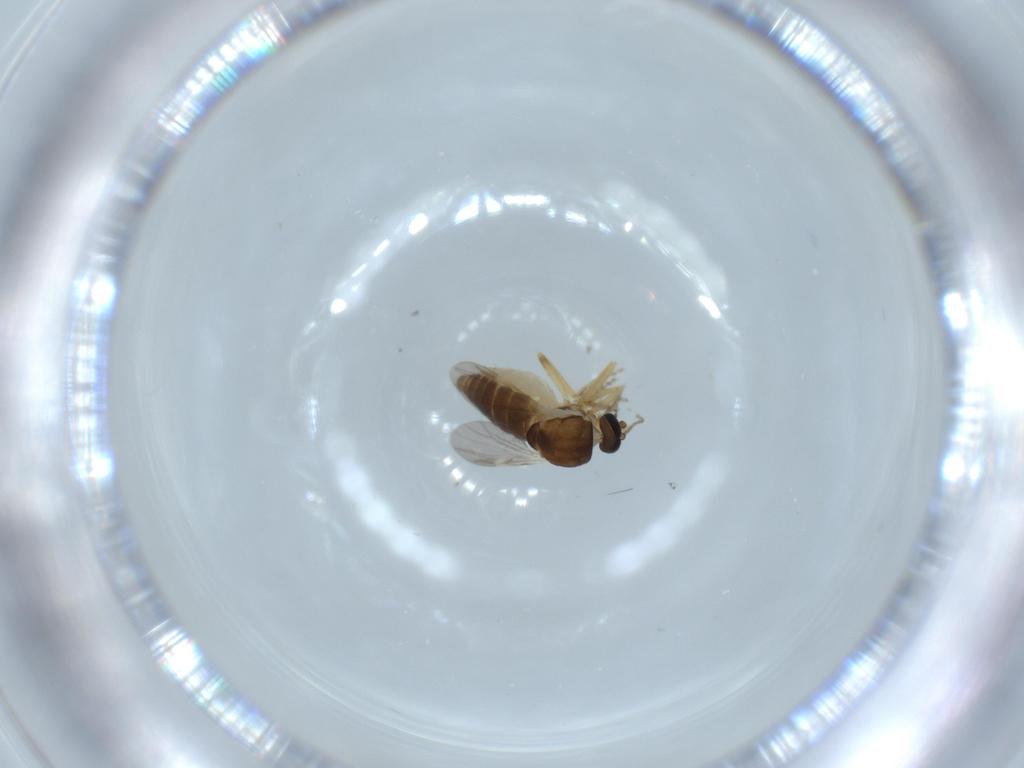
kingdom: Animalia
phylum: Arthropoda
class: Insecta
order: Diptera
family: Ceratopogonidae
